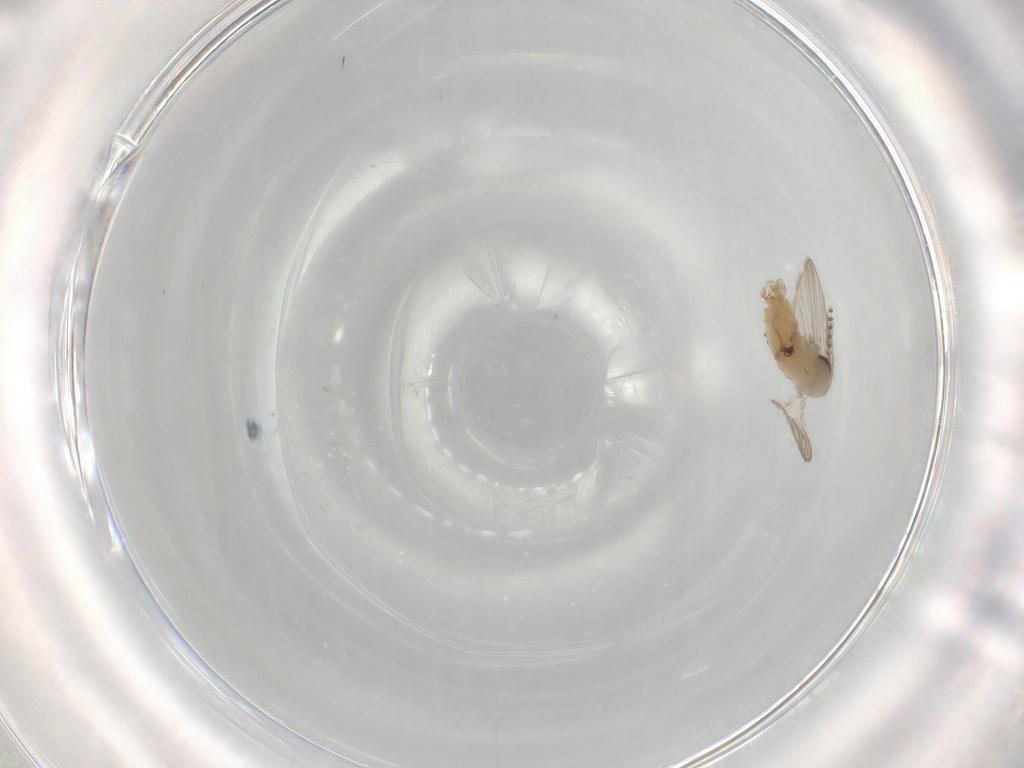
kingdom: Animalia
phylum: Arthropoda
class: Insecta
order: Diptera
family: Psychodidae
